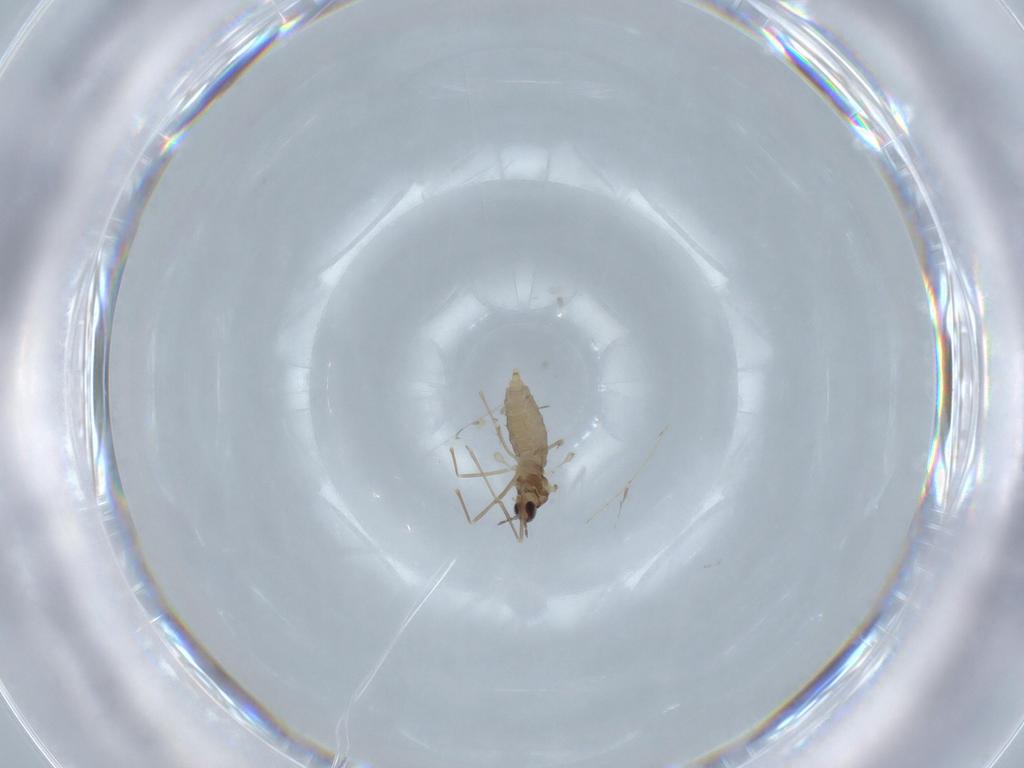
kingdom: Animalia
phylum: Arthropoda
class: Insecta
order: Diptera
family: Cecidomyiidae
